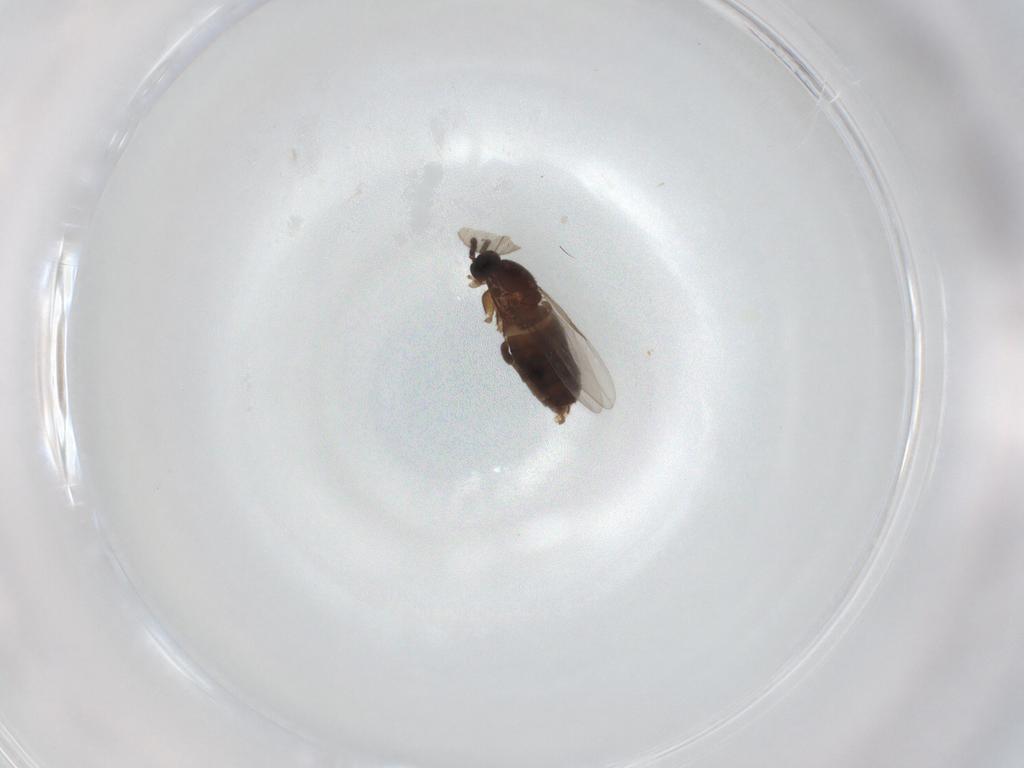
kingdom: Animalia
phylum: Arthropoda
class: Insecta
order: Diptera
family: Scatopsidae
